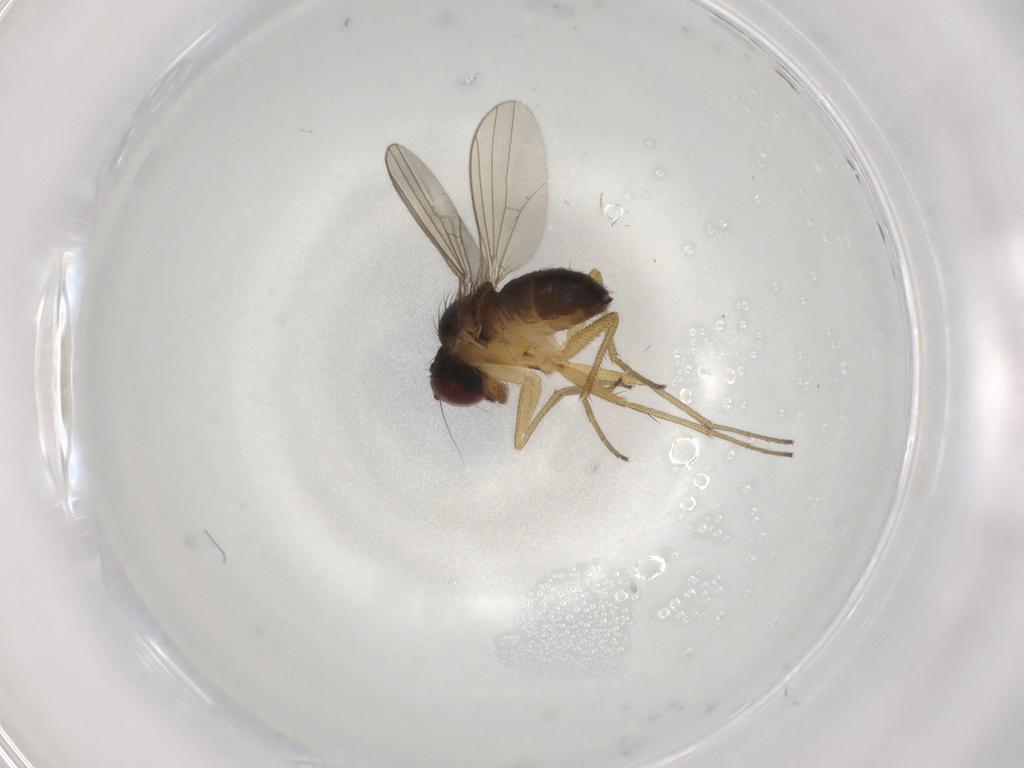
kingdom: Animalia
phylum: Arthropoda
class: Insecta
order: Diptera
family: Dolichopodidae
